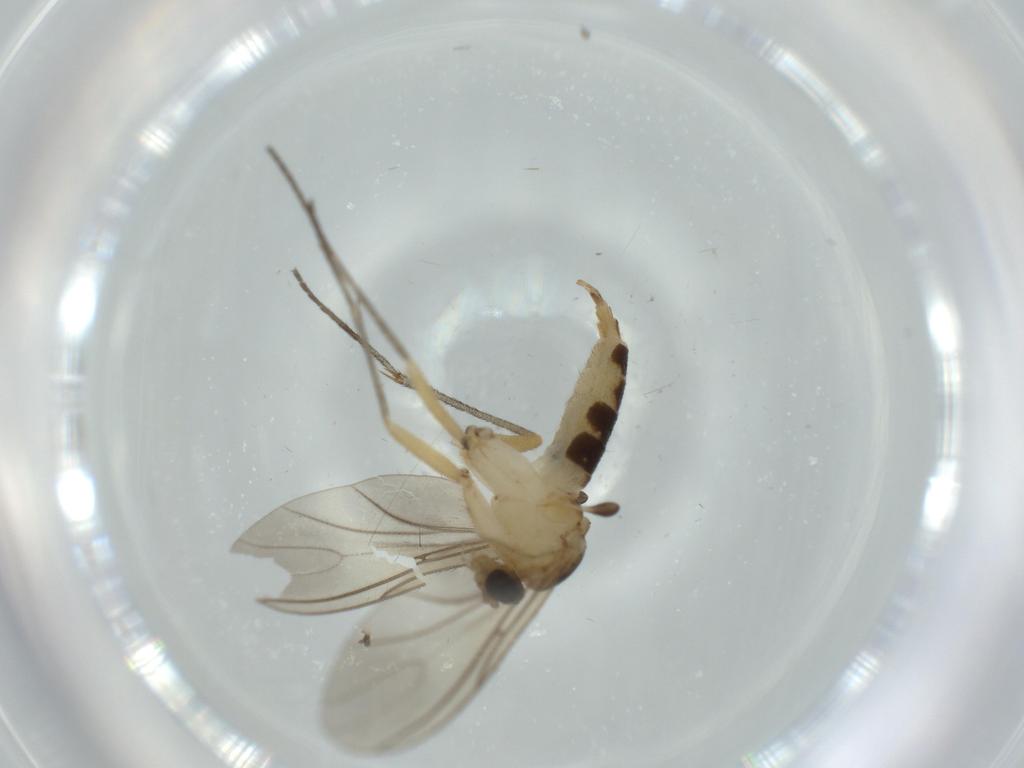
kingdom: Animalia
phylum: Arthropoda
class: Insecta
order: Diptera
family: Sciaridae
